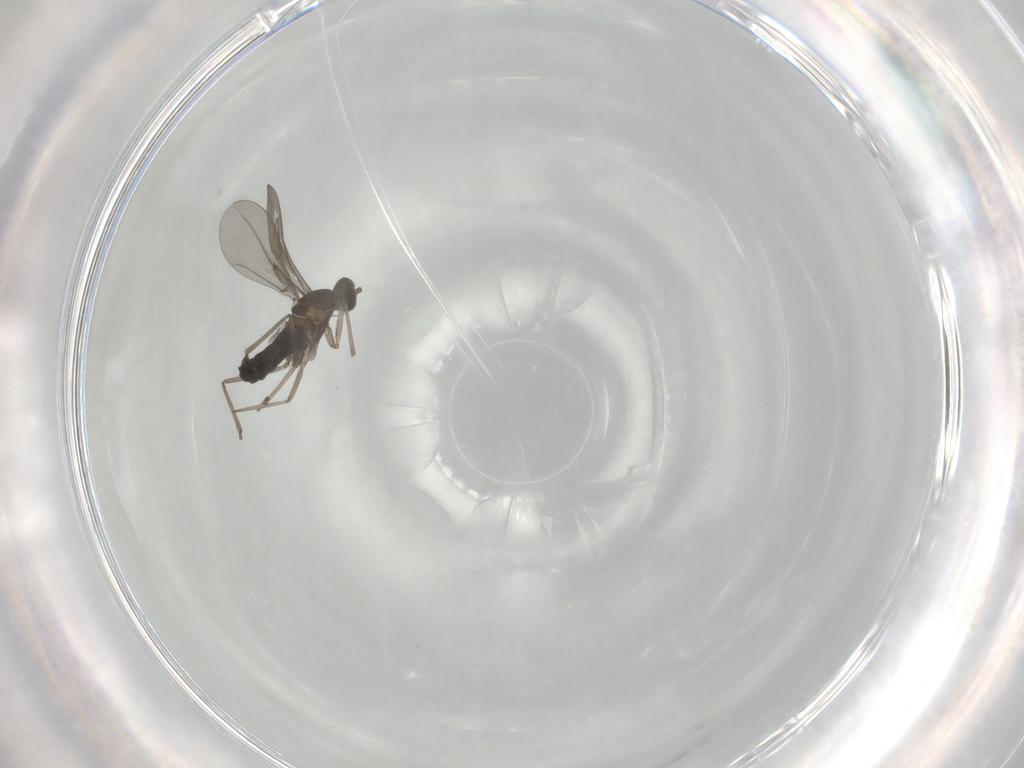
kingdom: Animalia
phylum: Arthropoda
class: Insecta
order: Diptera
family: Cecidomyiidae
